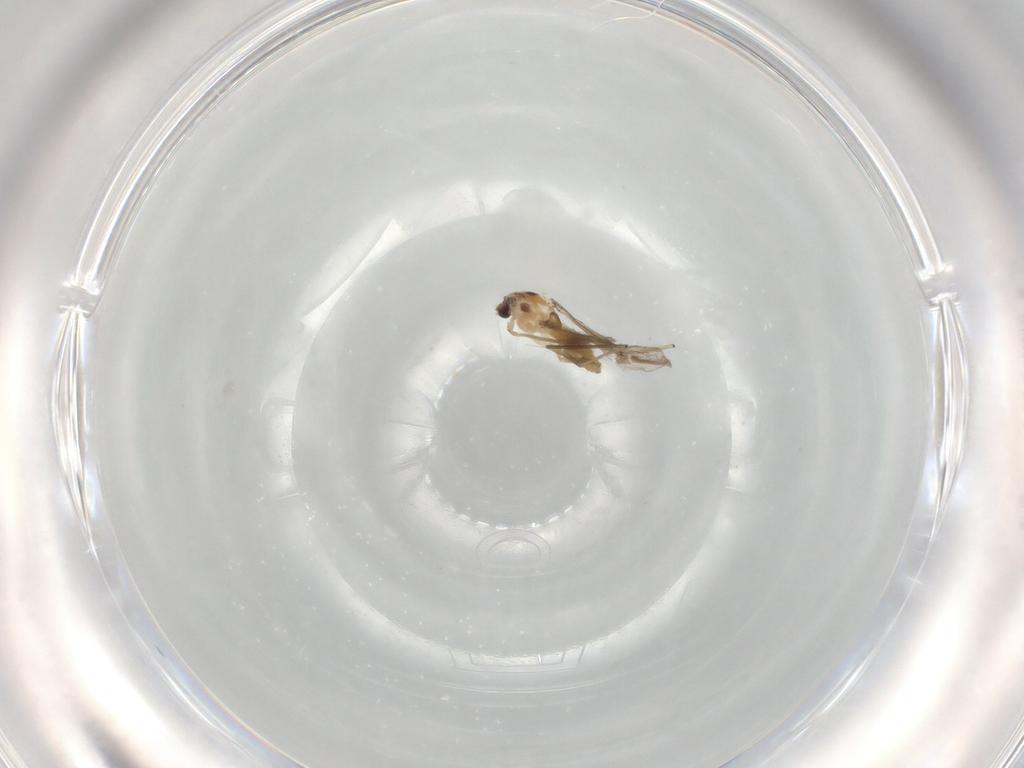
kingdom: Animalia
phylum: Arthropoda
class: Insecta
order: Diptera
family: Chironomidae
